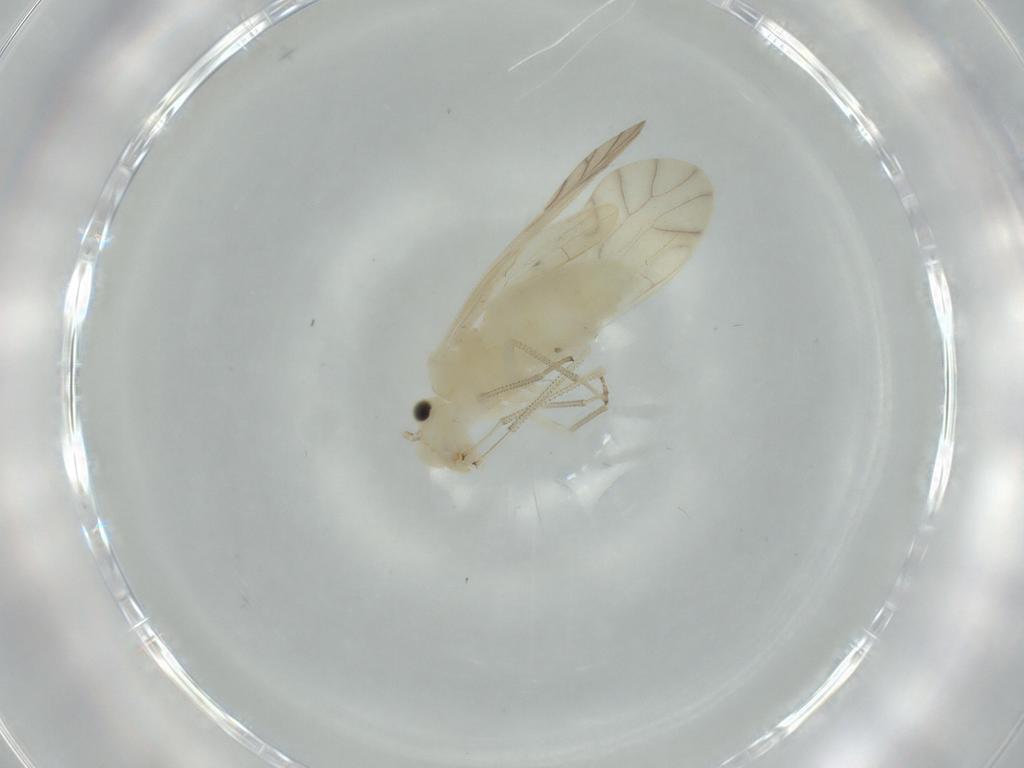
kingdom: Animalia
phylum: Arthropoda
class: Insecta
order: Psocodea
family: Caeciliusidae
